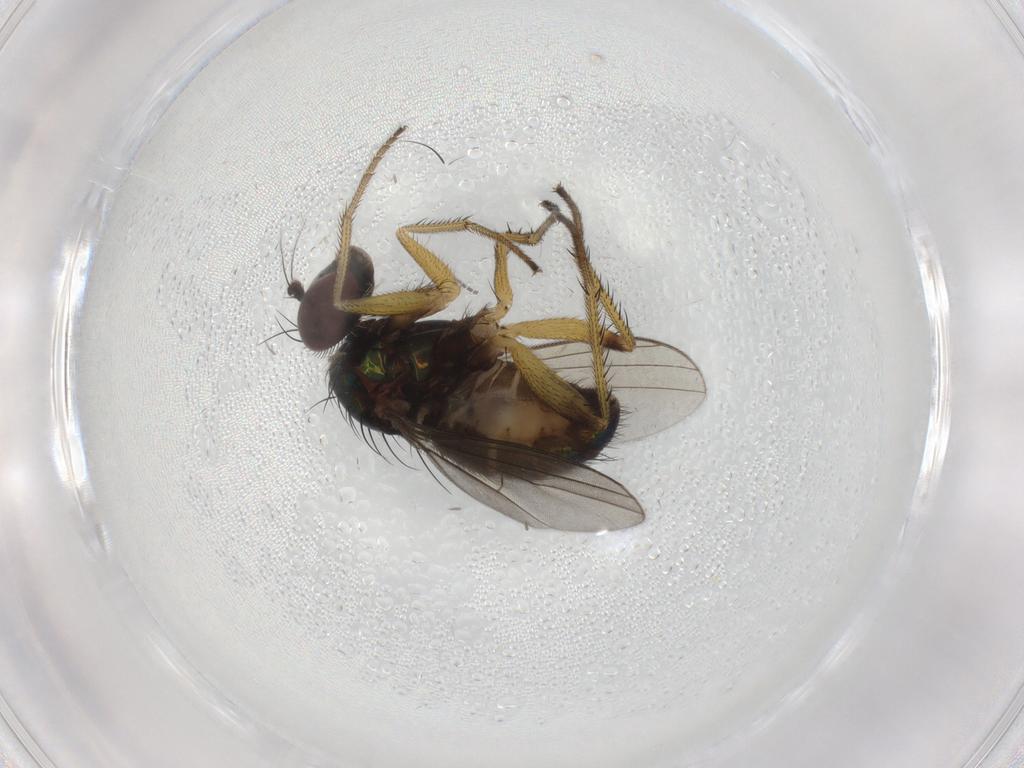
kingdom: Animalia
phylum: Arthropoda
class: Insecta
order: Diptera
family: Dolichopodidae
